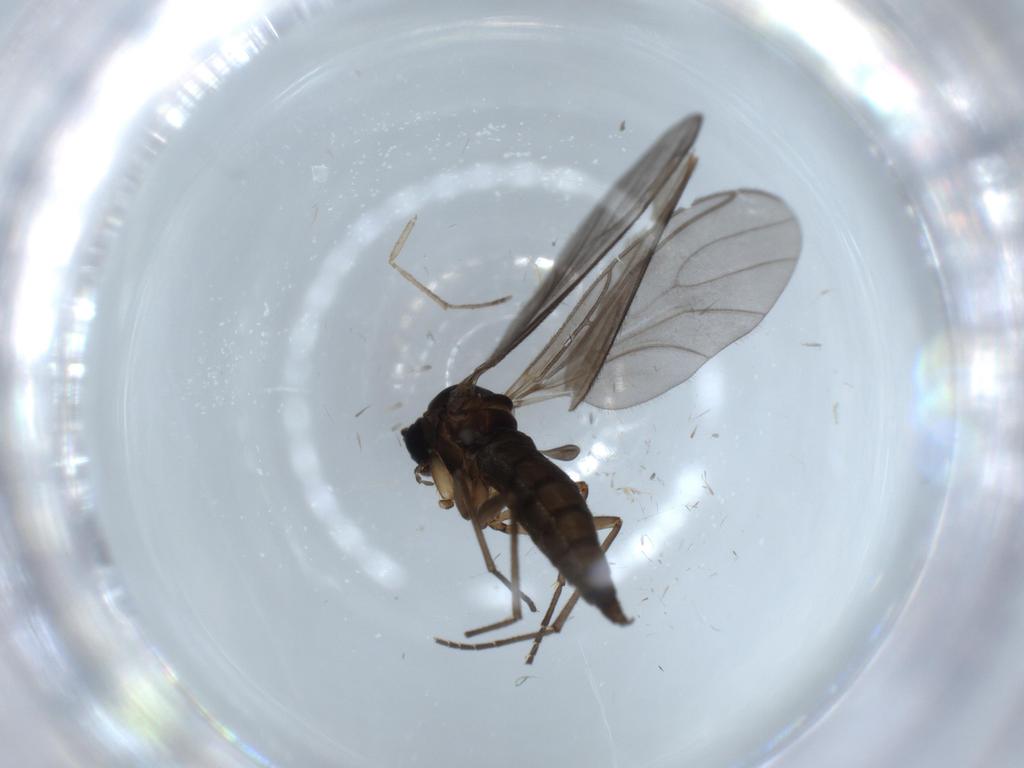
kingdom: Animalia
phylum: Arthropoda
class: Insecta
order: Diptera
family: Sciaridae
